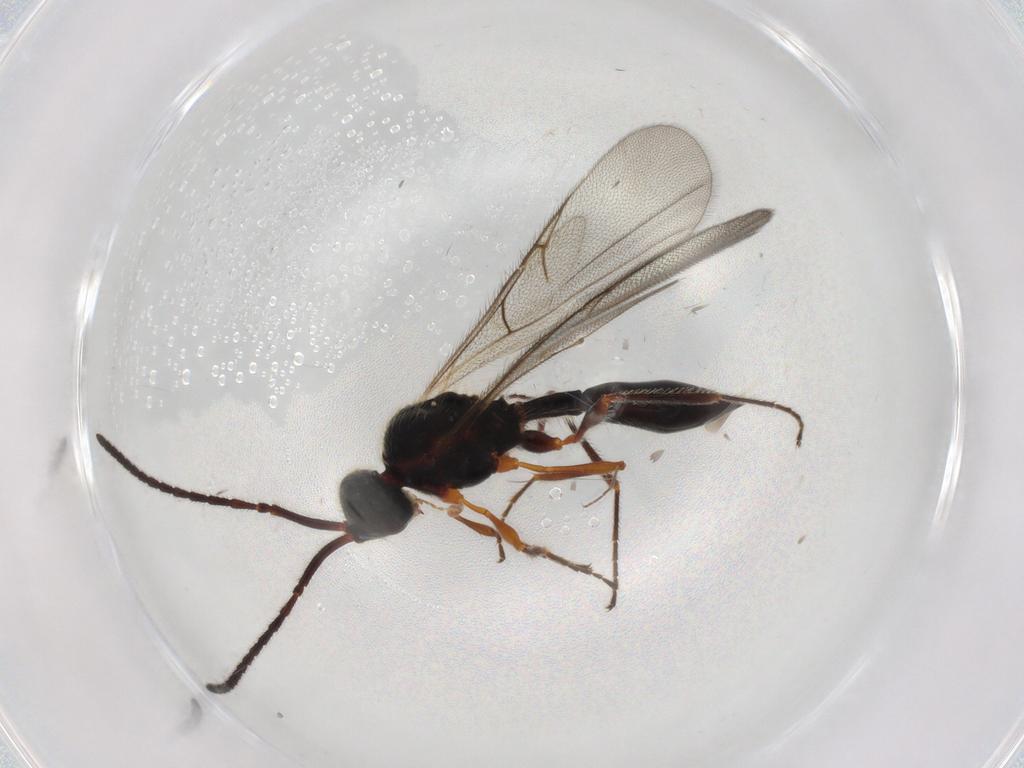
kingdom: Animalia
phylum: Arthropoda
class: Insecta
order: Hymenoptera
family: Diapriidae
